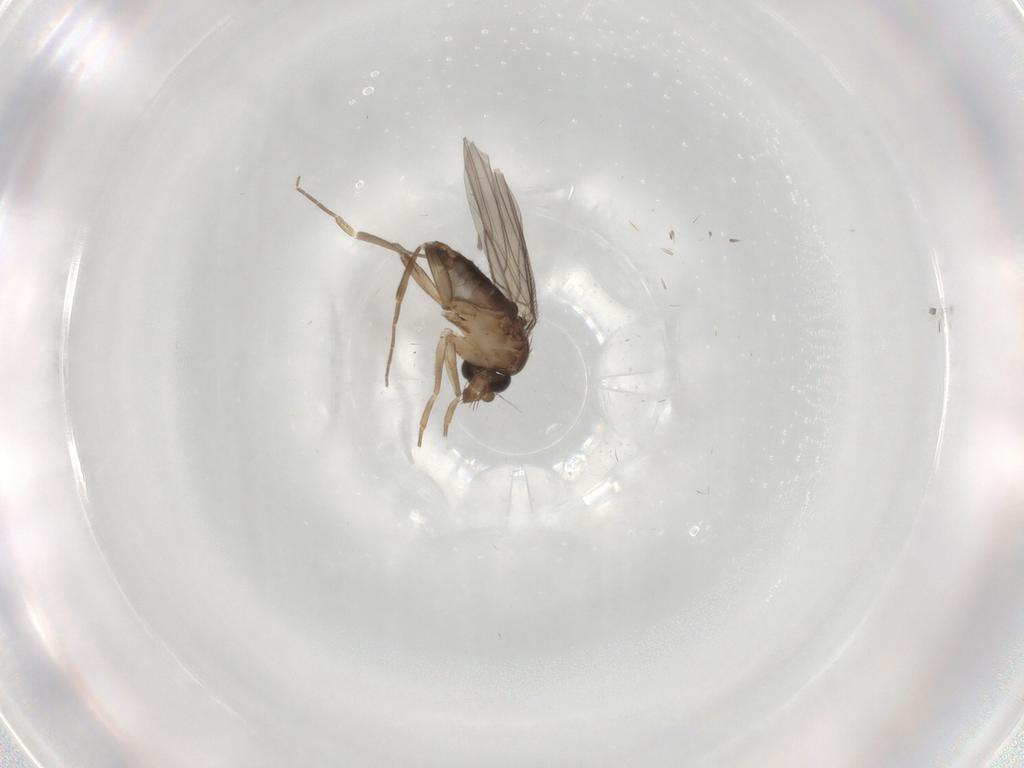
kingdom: Animalia
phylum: Arthropoda
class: Insecta
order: Diptera
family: Phoridae
